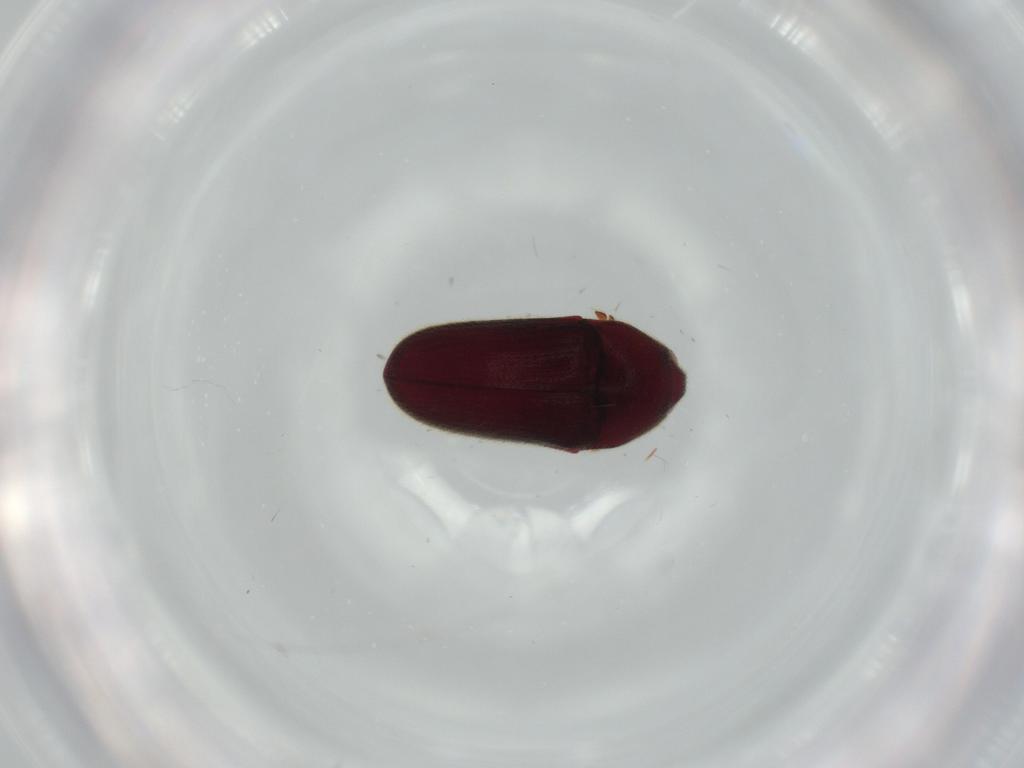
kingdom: Animalia
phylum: Arthropoda
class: Insecta
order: Coleoptera
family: Throscidae
